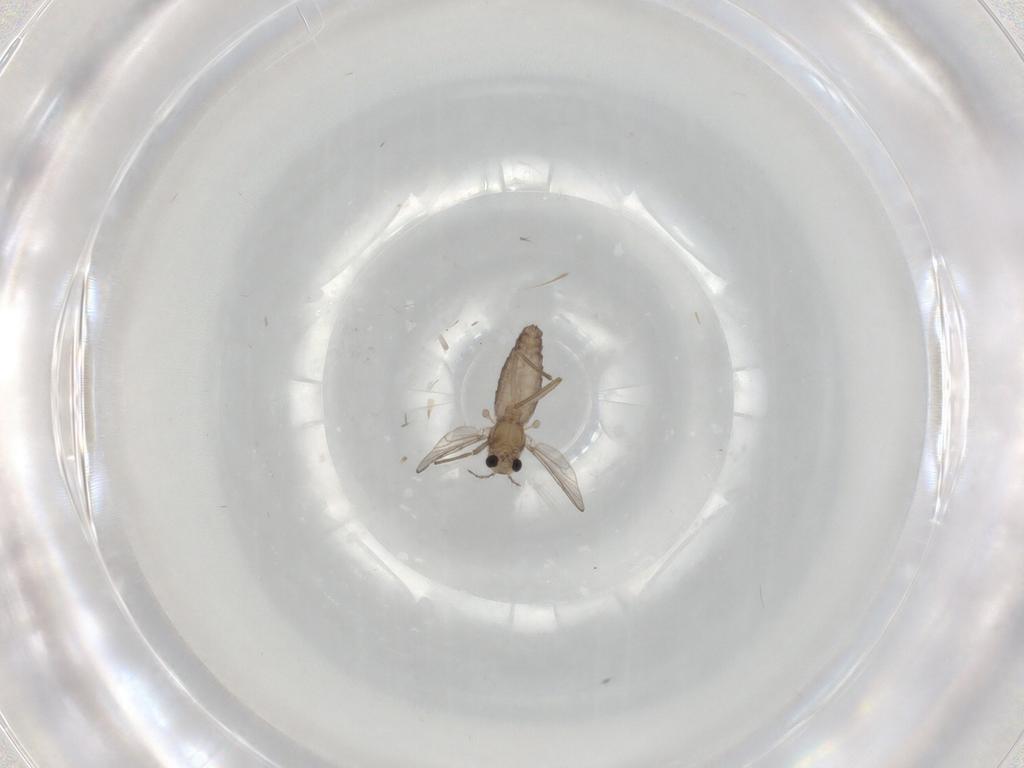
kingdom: Animalia
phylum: Arthropoda
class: Insecta
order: Diptera
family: Chironomidae
